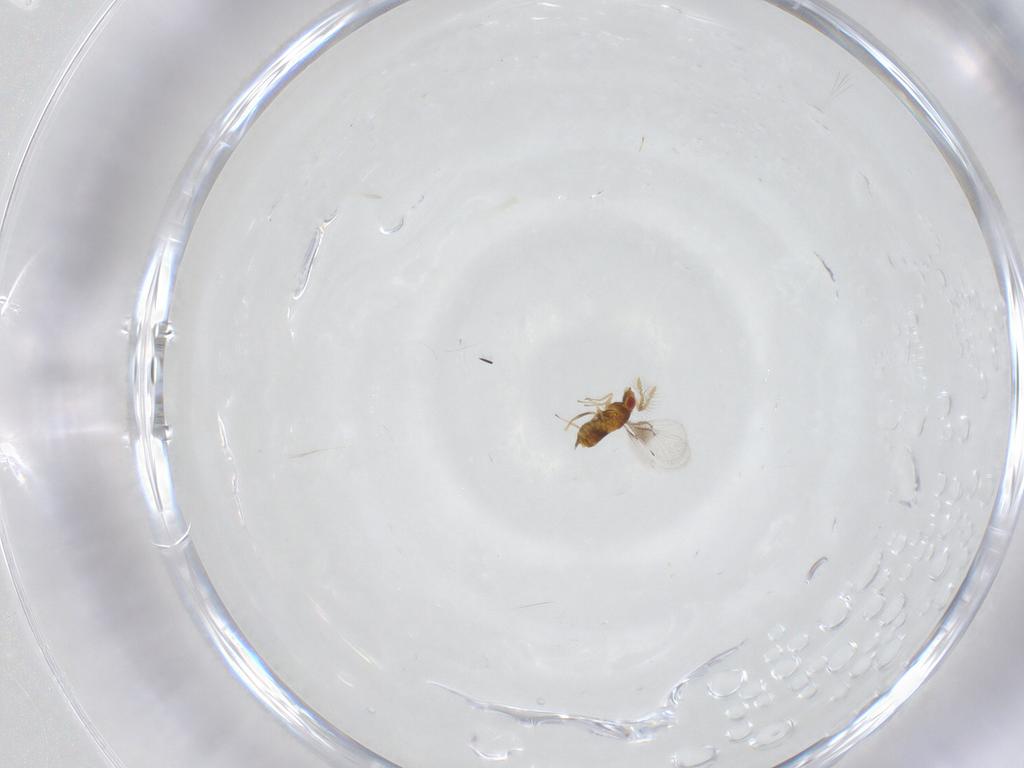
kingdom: Animalia
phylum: Arthropoda
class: Insecta
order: Hymenoptera
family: Trichogrammatidae
